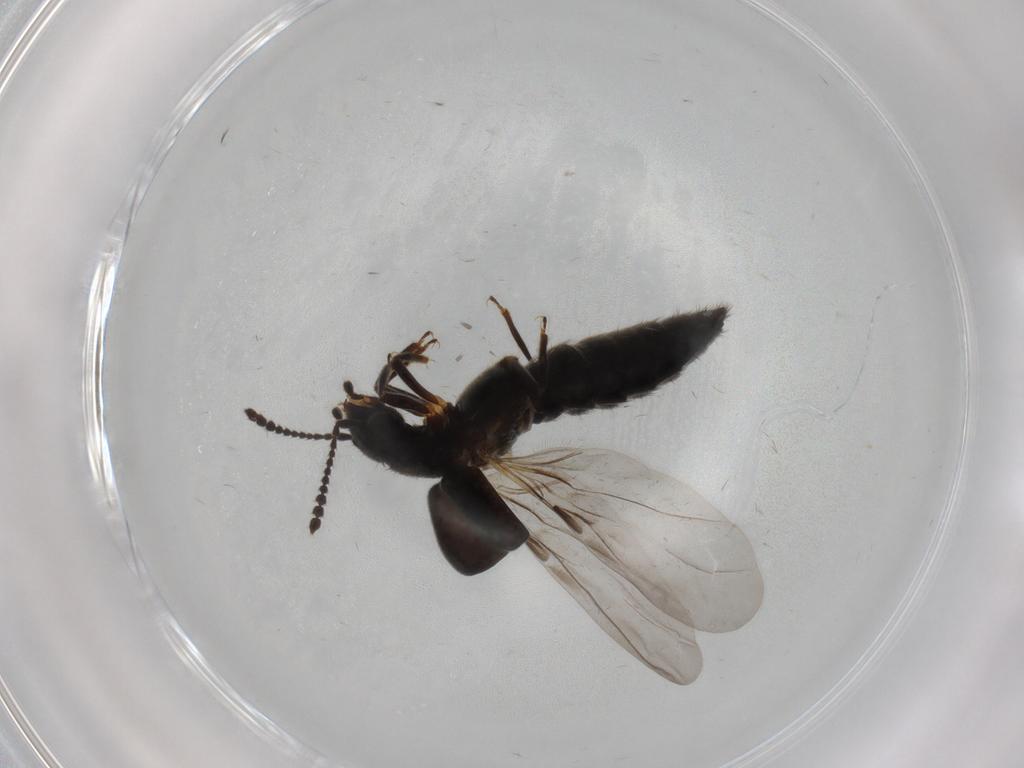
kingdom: Animalia
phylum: Arthropoda
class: Insecta
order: Coleoptera
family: Staphylinidae
